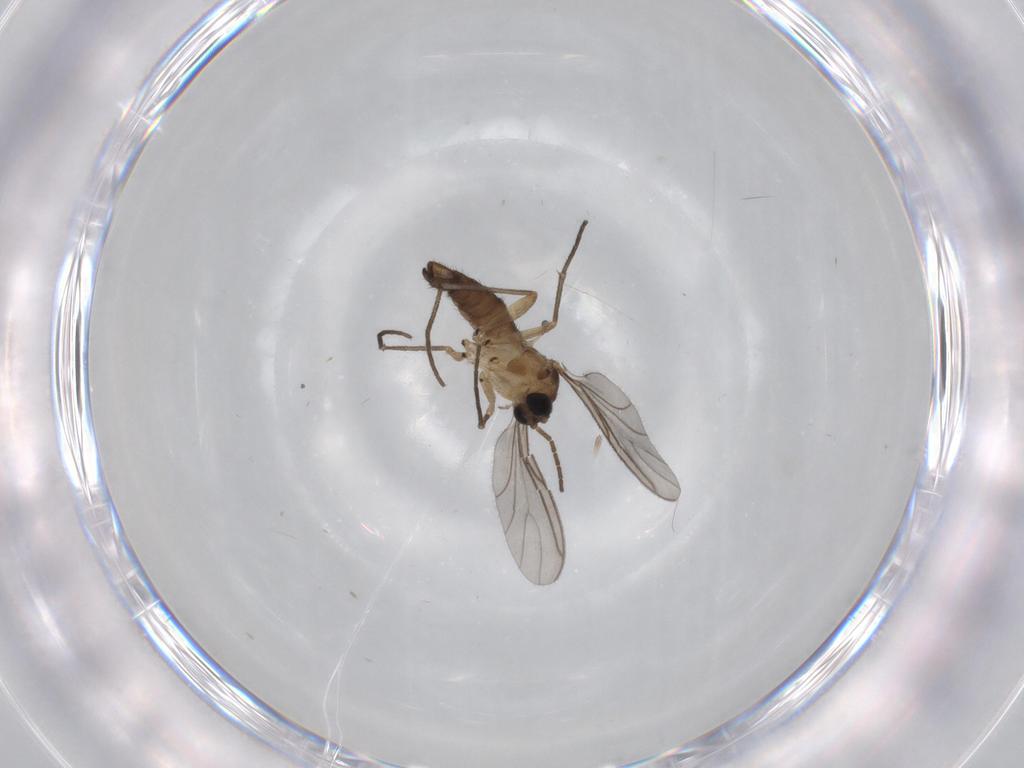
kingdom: Animalia
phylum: Arthropoda
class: Insecta
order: Diptera
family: Sciaridae
